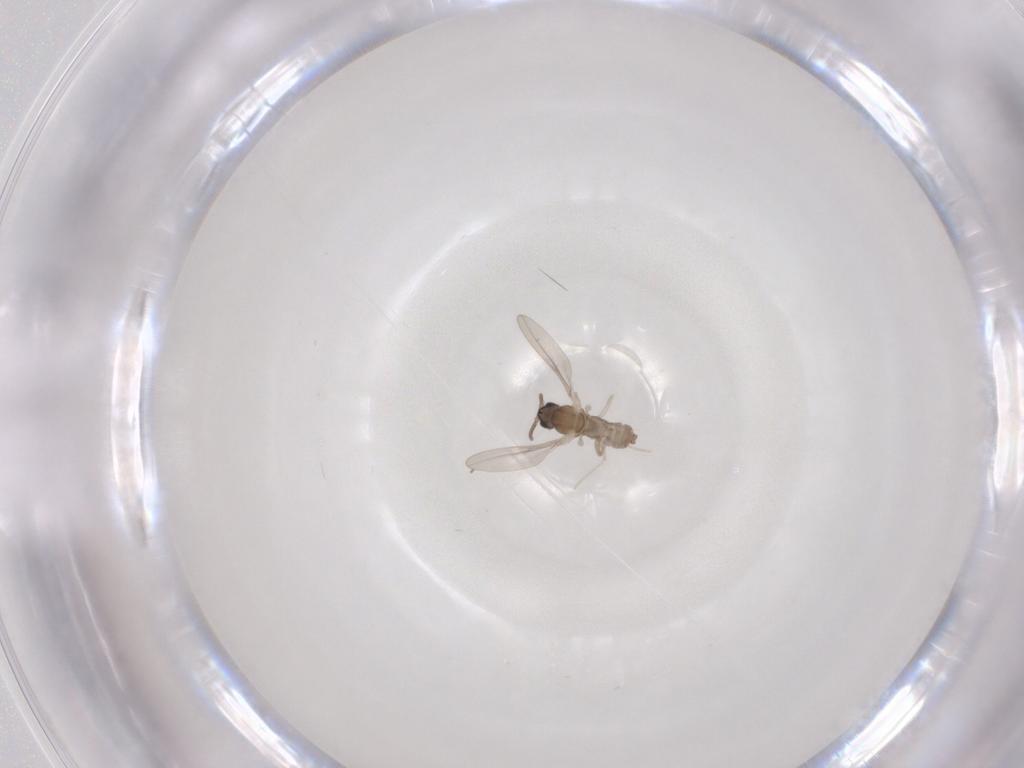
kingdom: Animalia
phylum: Arthropoda
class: Insecta
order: Diptera
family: Cecidomyiidae
